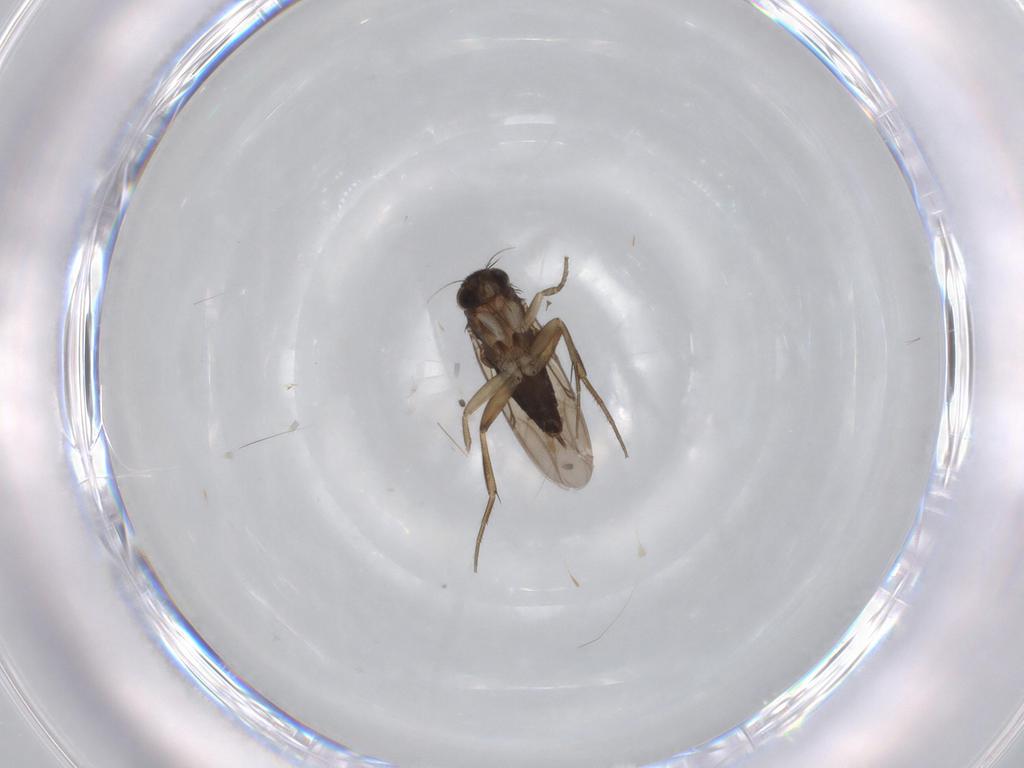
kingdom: Animalia
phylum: Arthropoda
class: Insecta
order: Diptera
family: Phoridae
